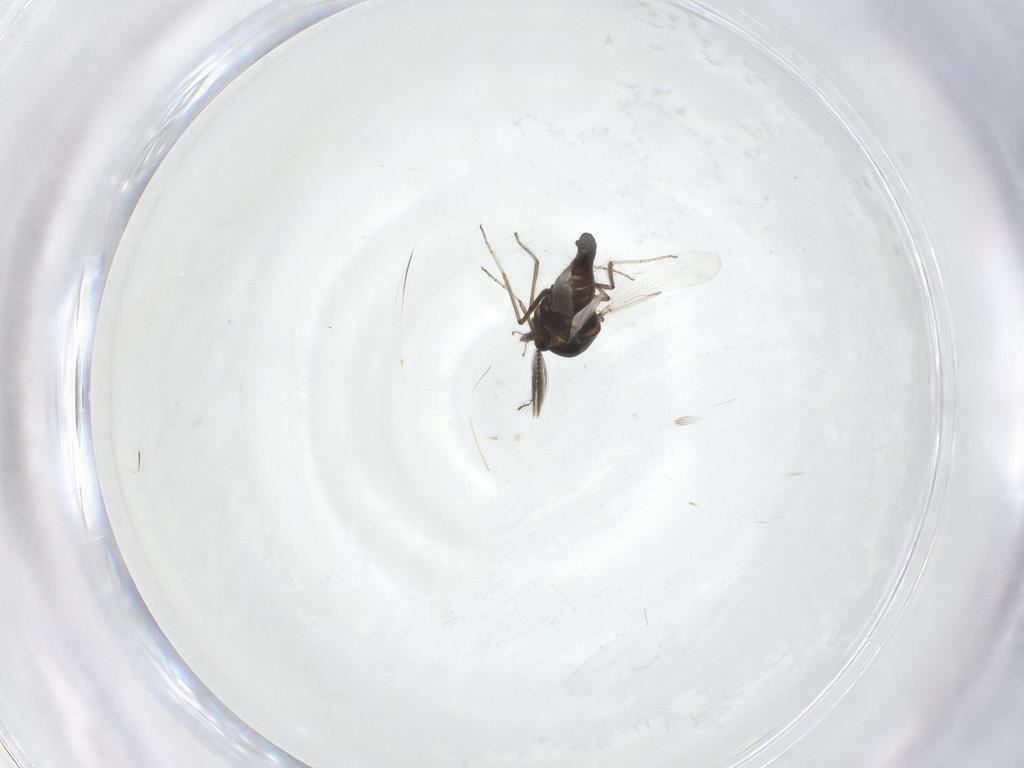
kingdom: Animalia
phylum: Arthropoda
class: Insecta
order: Diptera
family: Ceratopogonidae
